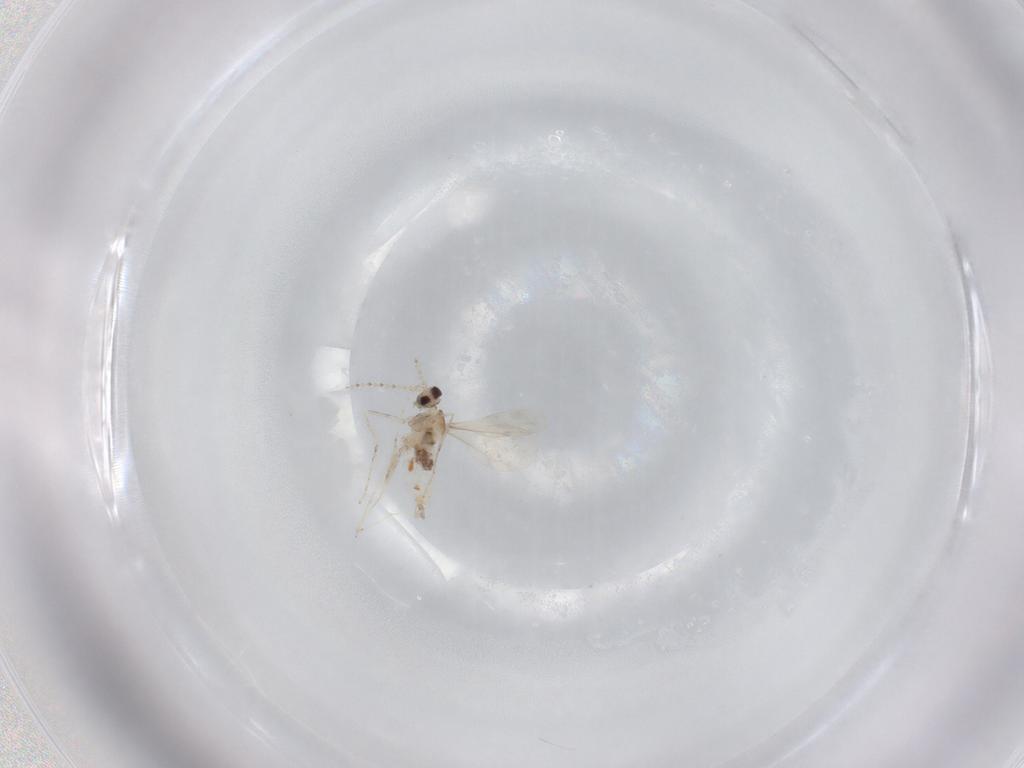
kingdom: Animalia
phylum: Arthropoda
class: Insecta
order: Diptera
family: Cecidomyiidae
